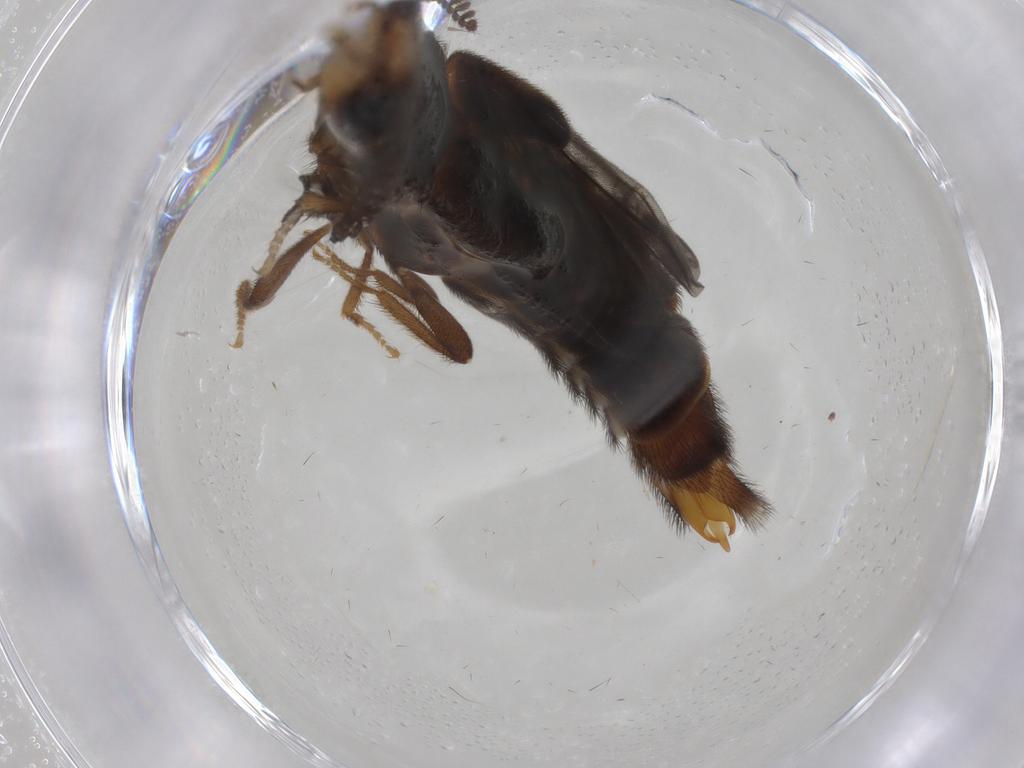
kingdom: Animalia
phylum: Arthropoda
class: Insecta
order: Coleoptera
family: Phengodidae
